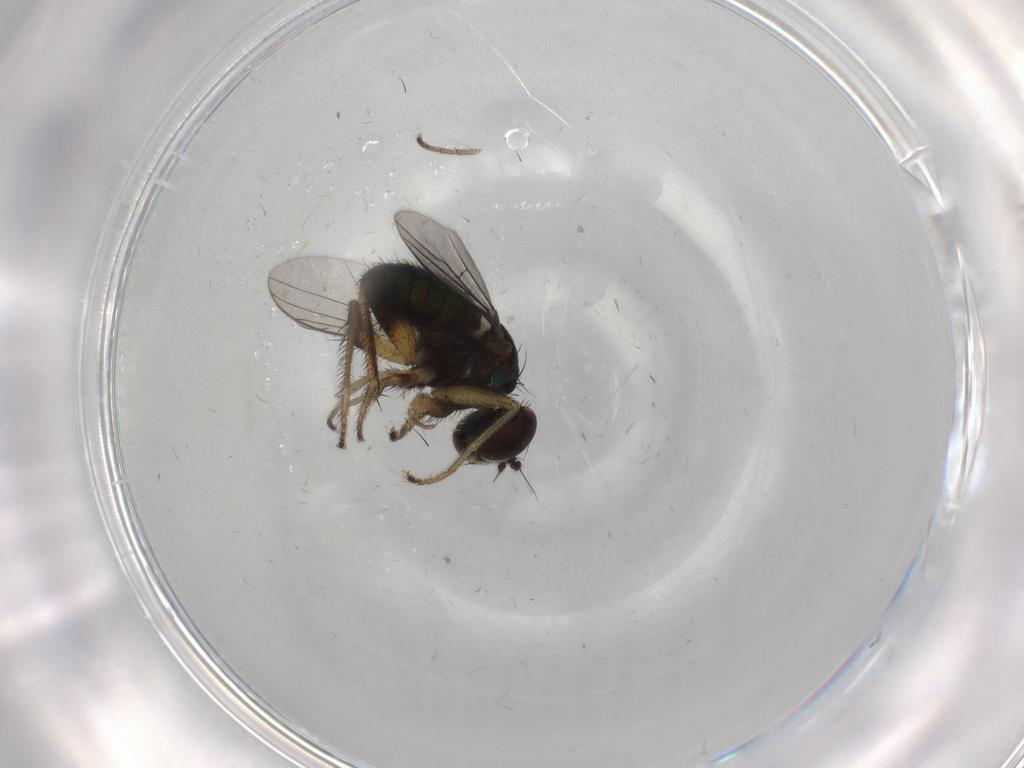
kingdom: Animalia
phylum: Arthropoda
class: Insecta
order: Diptera
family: Dolichopodidae
